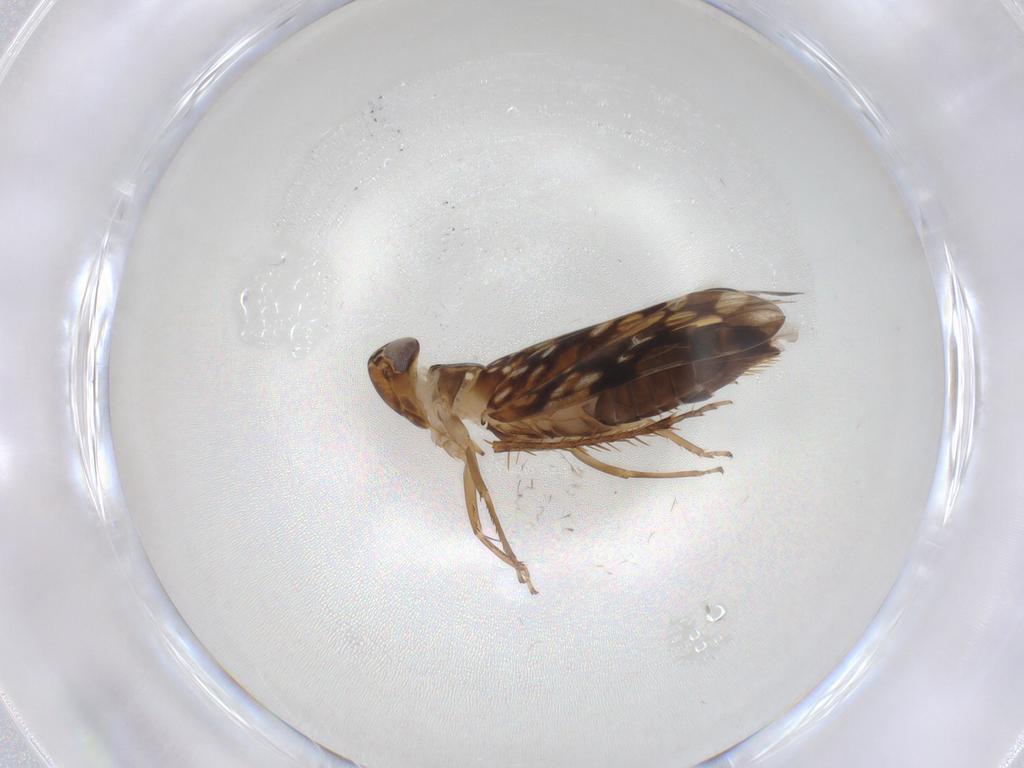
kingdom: Animalia
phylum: Arthropoda
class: Insecta
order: Hemiptera
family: Cicadellidae
